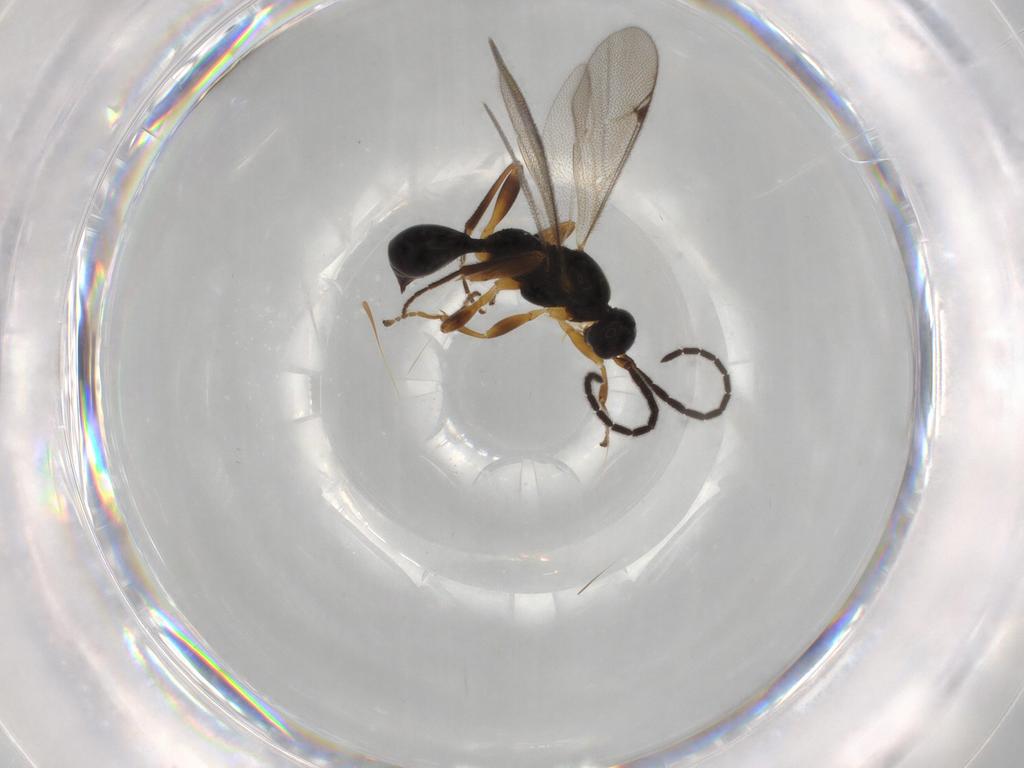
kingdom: Animalia
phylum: Arthropoda
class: Insecta
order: Hymenoptera
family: Proctotrupidae
